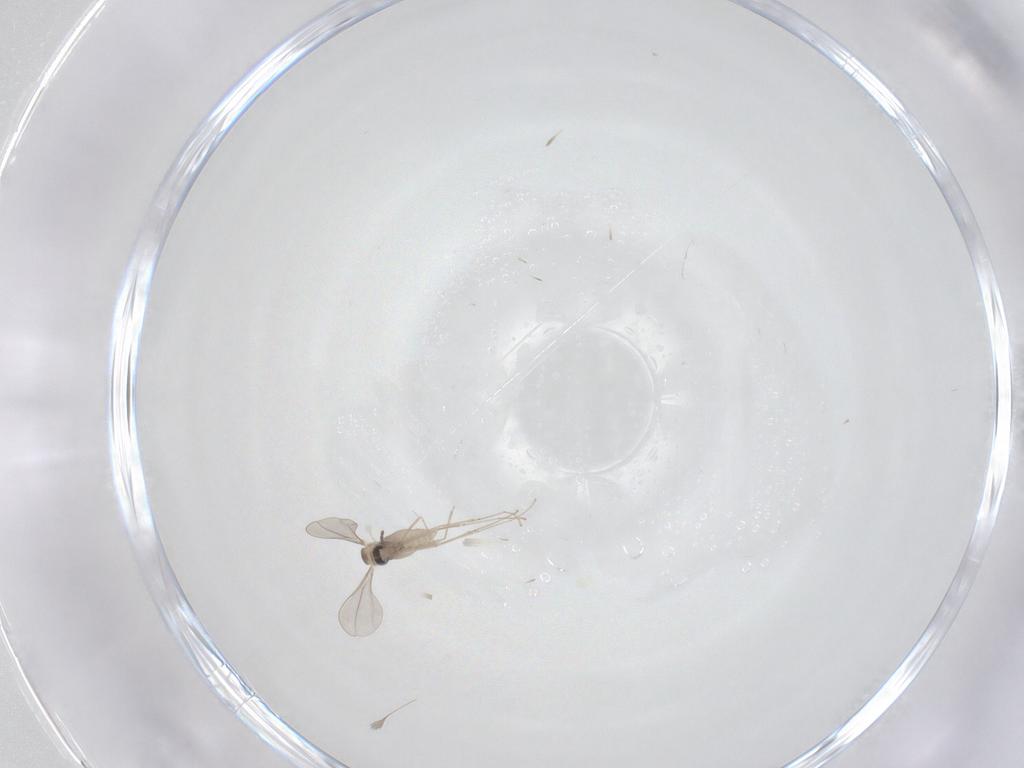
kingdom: Animalia
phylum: Arthropoda
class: Insecta
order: Diptera
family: Cecidomyiidae
